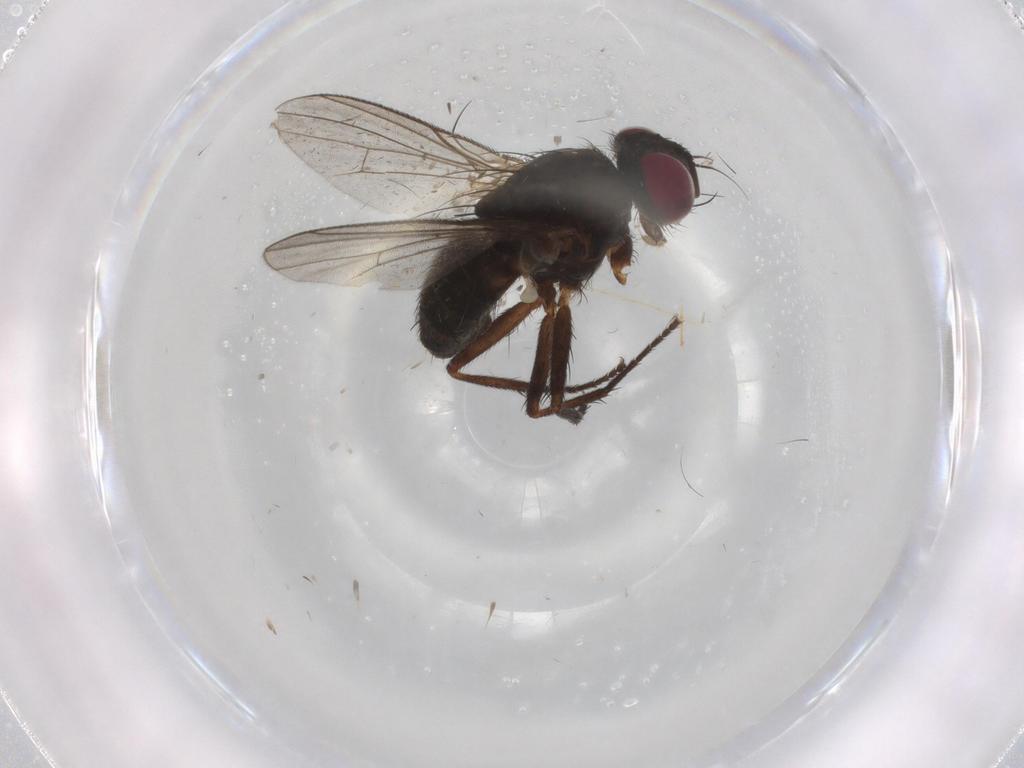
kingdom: Animalia
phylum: Arthropoda
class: Insecta
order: Diptera
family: Muscidae
